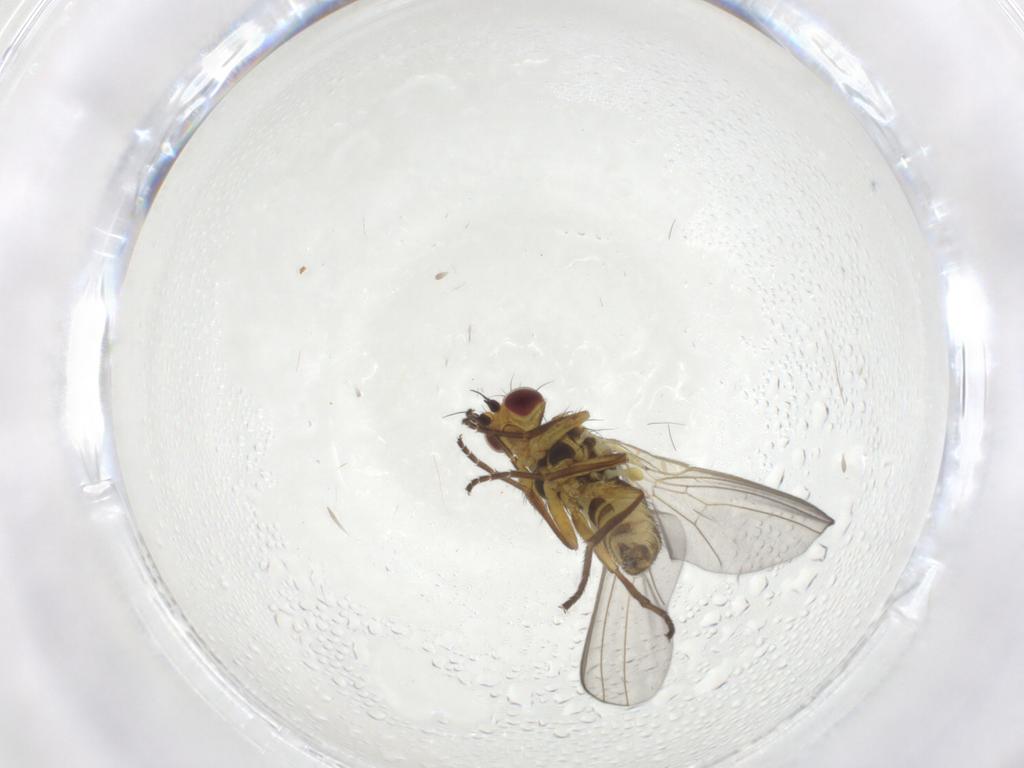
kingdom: Animalia
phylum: Arthropoda
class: Insecta
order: Diptera
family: Agromyzidae
